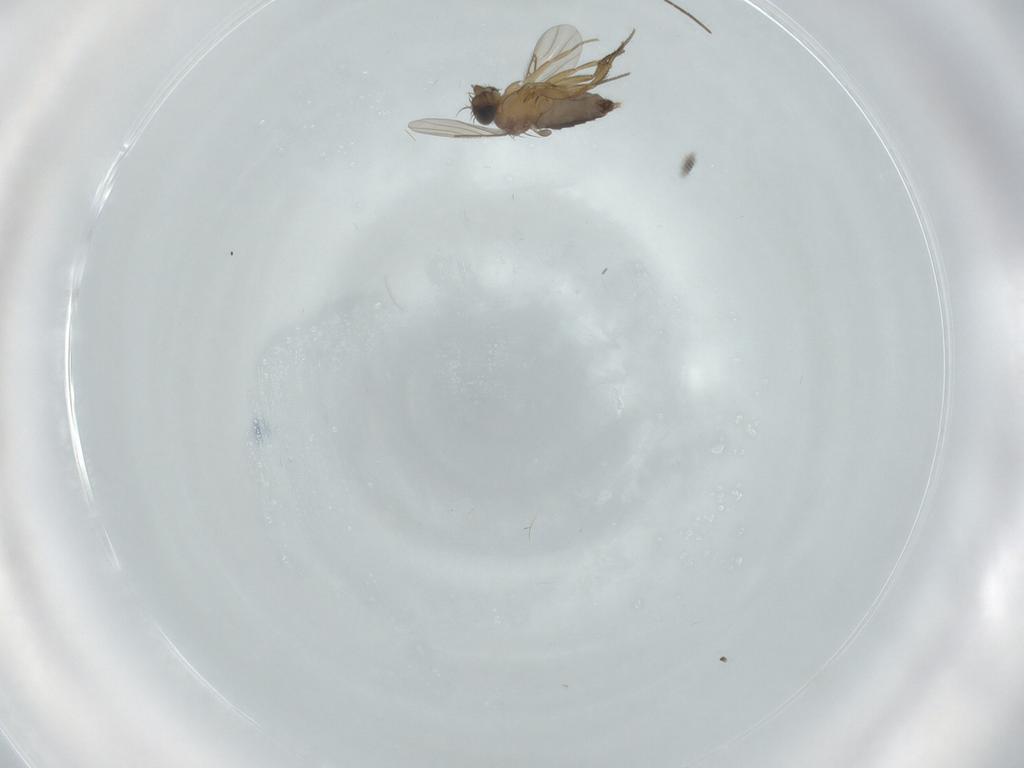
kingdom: Animalia
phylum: Arthropoda
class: Insecta
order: Diptera
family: Phoridae
